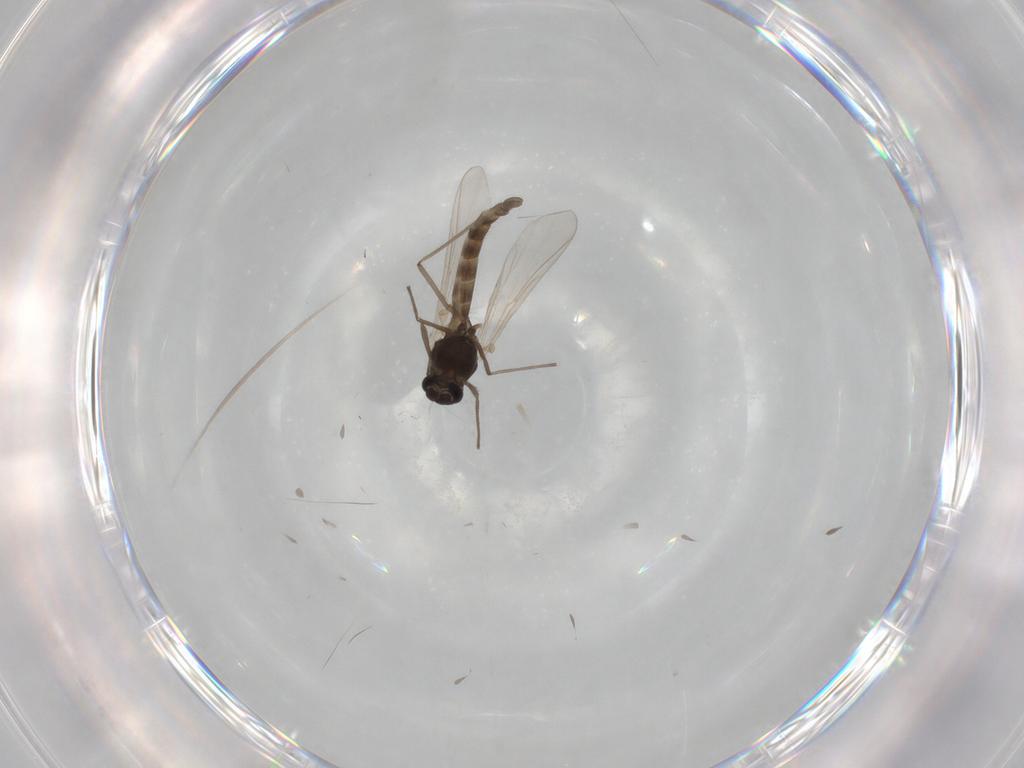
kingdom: Animalia
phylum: Arthropoda
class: Insecta
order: Diptera
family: Chironomidae
